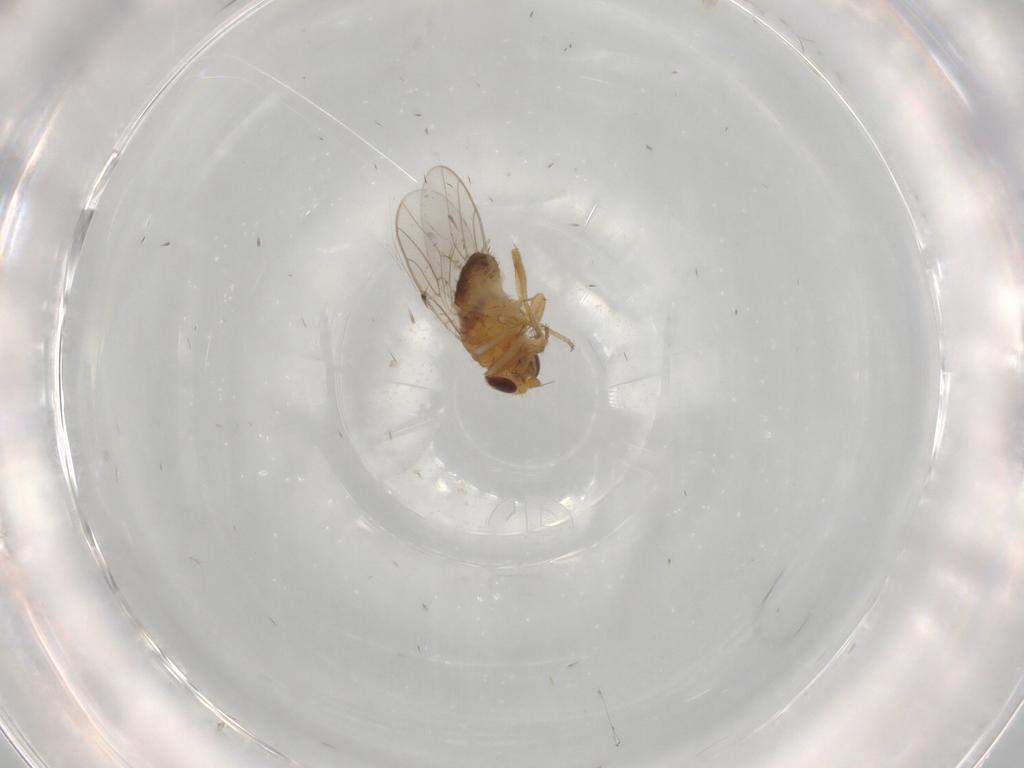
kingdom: Animalia
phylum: Arthropoda
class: Insecta
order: Diptera
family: Chloropidae
